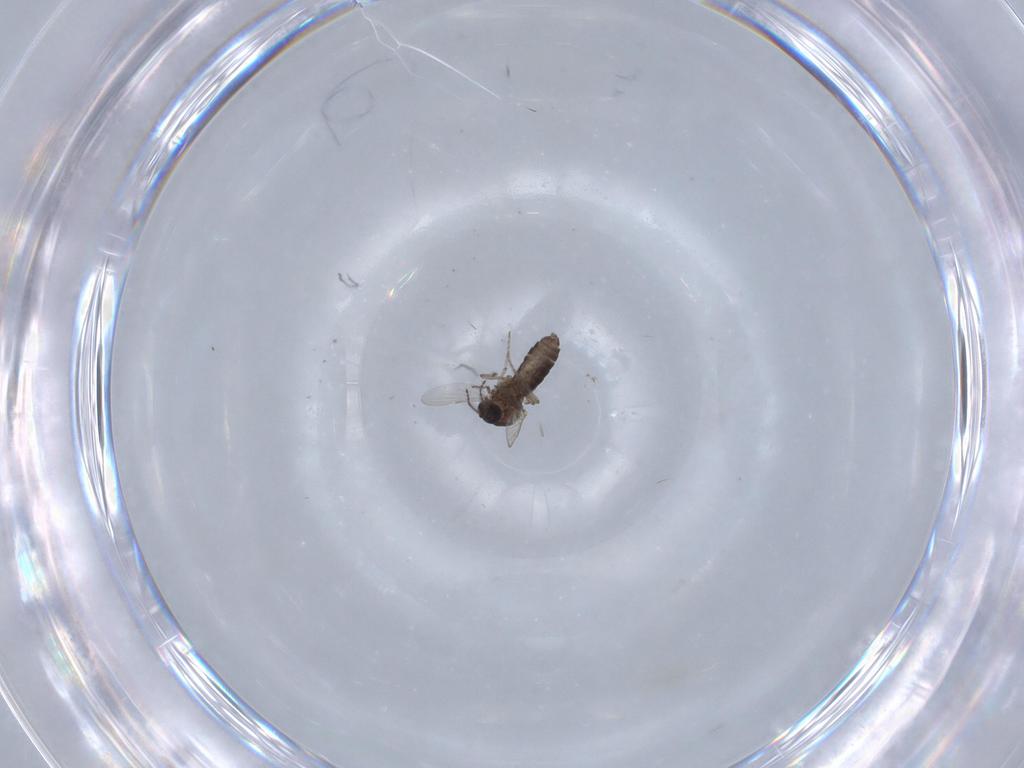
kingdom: Animalia
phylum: Arthropoda
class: Insecta
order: Diptera
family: Ceratopogonidae
